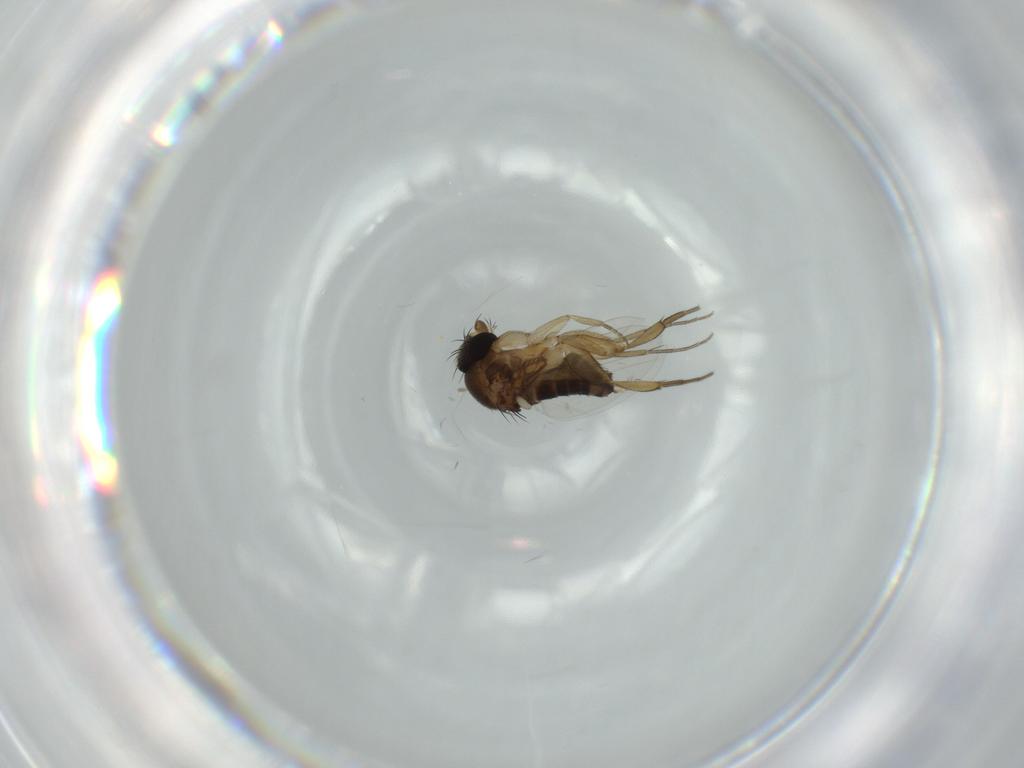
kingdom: Animalia
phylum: Arthropoda
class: Insecta
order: Diptera
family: Phoridae
